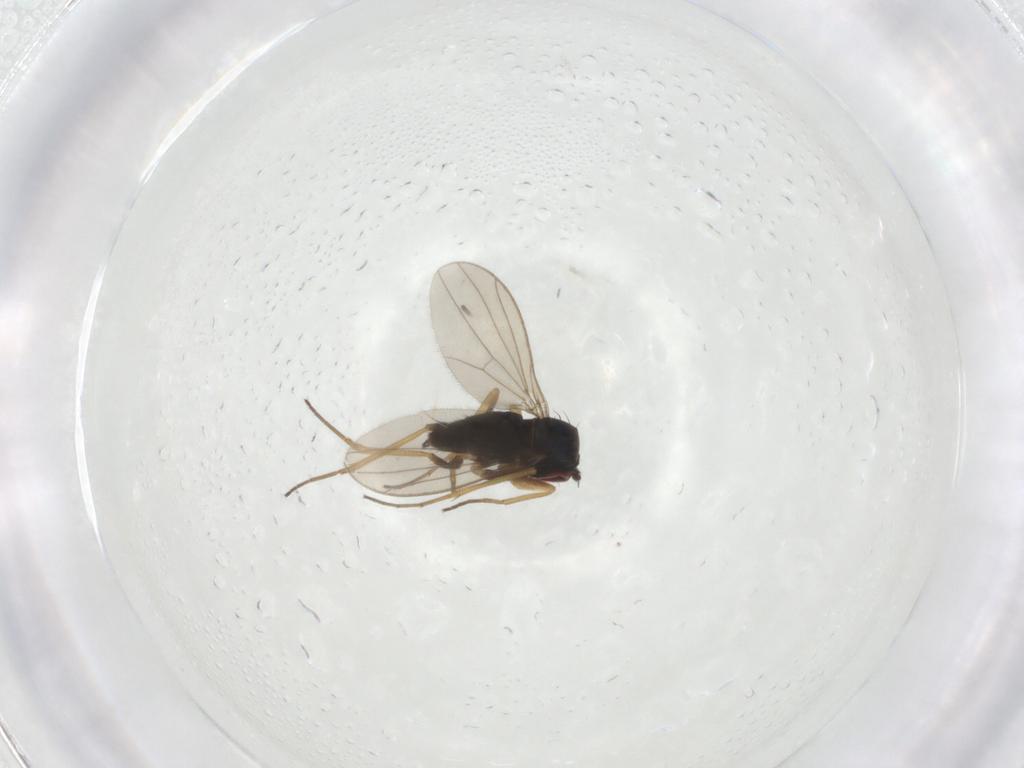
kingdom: Animalia
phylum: Arthropoda
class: Insecta
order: Diptera
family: Dolichopodidae
